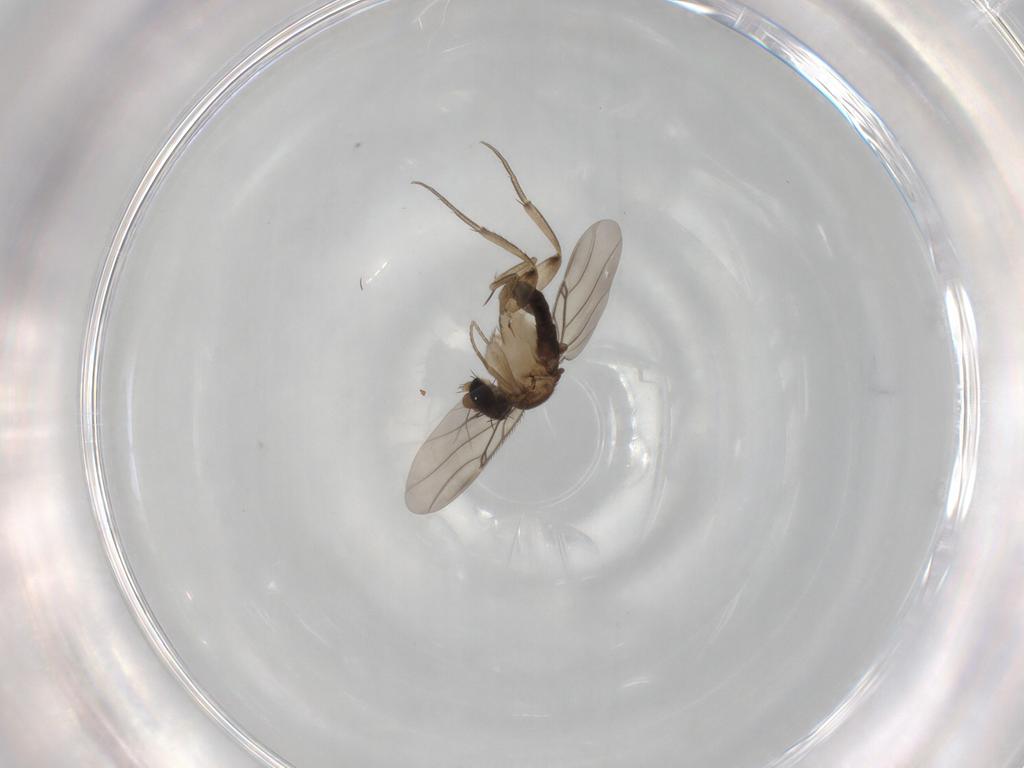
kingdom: Animalia
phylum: Arthropoda
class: Insecta
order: Diptera
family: Phoridae
